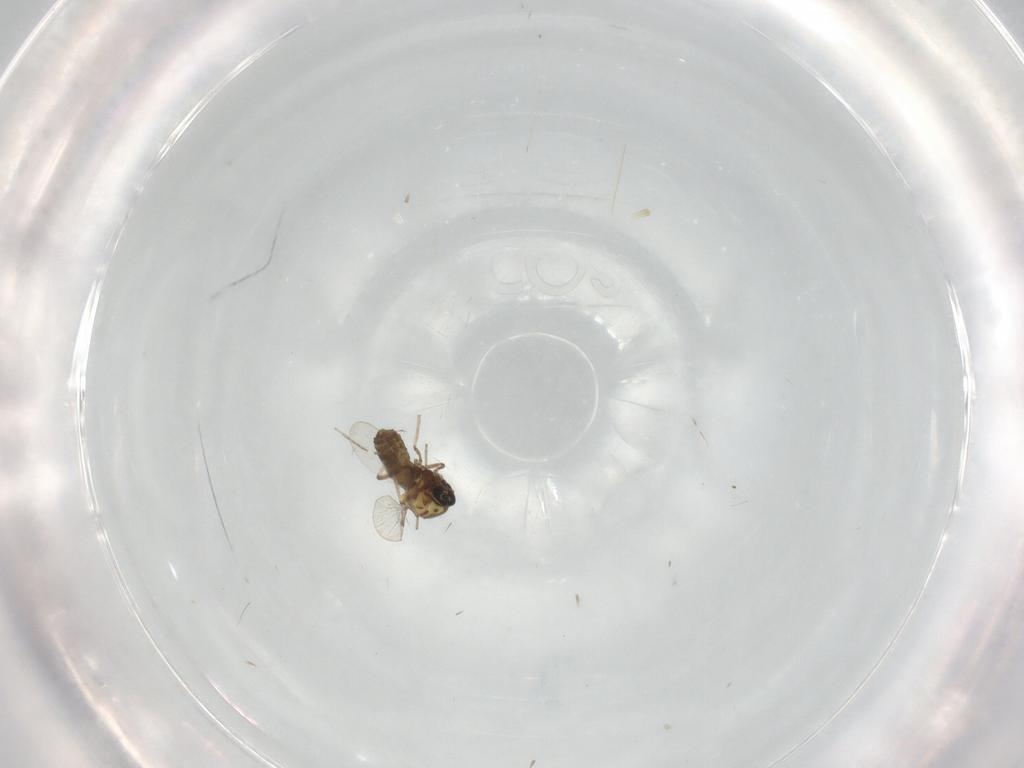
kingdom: Animalia
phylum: Arthropoda
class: Insecta
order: Diptera
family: Ceratopogonidae
